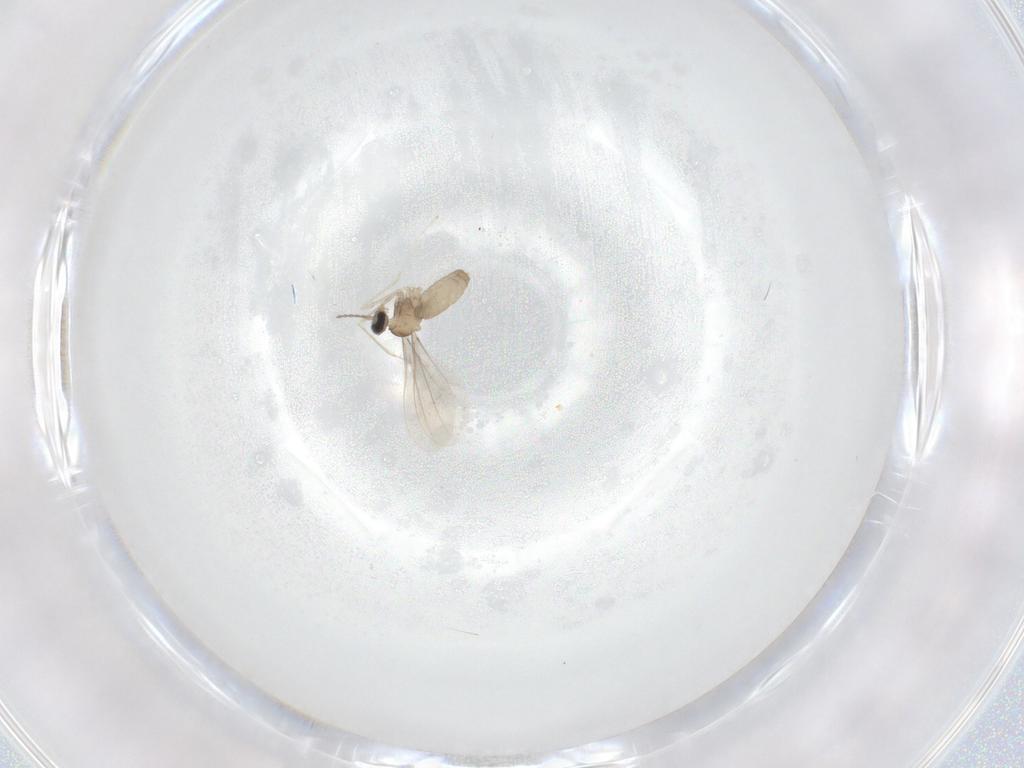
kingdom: Animalia
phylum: Arthropoda
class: Insecta
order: Diptera
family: Cecidomyiidae
